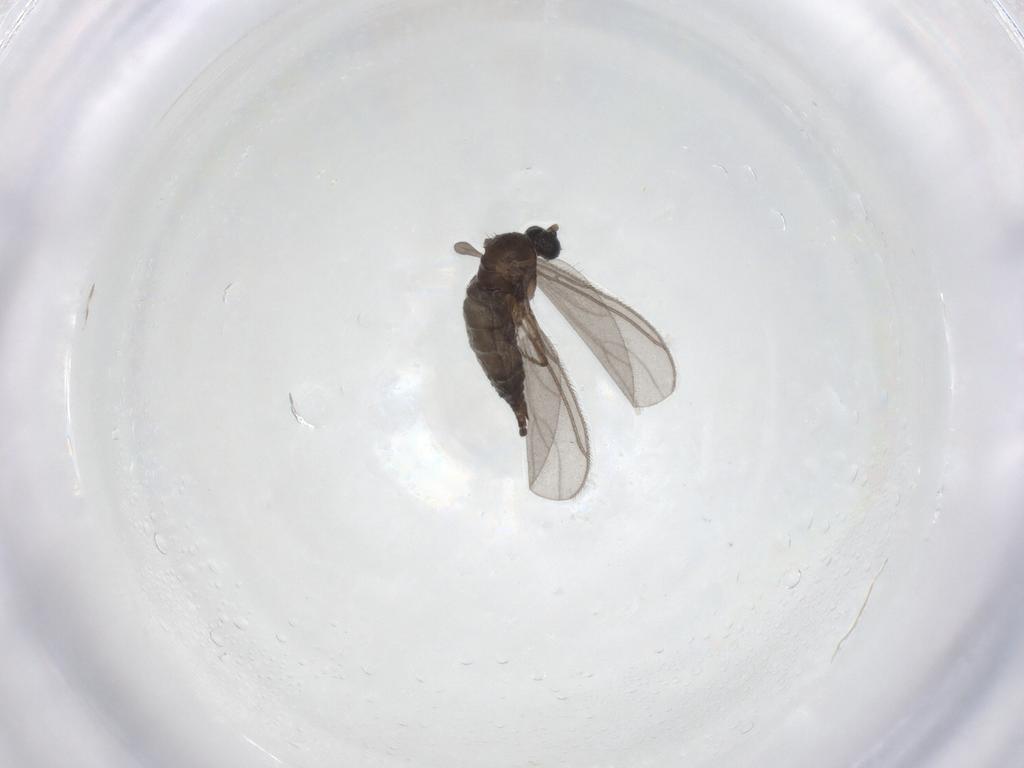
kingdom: Animalia
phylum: Arthropoda
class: Insecta
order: Diptera
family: Sciaridae
